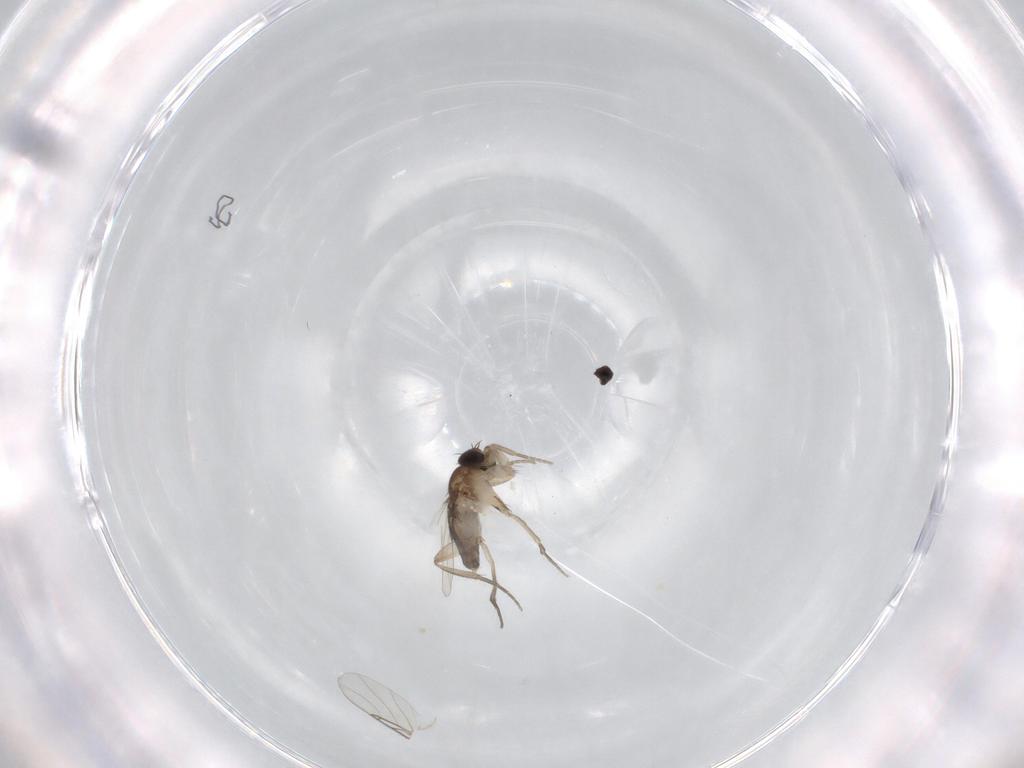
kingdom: Animalia
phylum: Arthropoda
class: Insecta
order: Diptera
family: Phoridae
